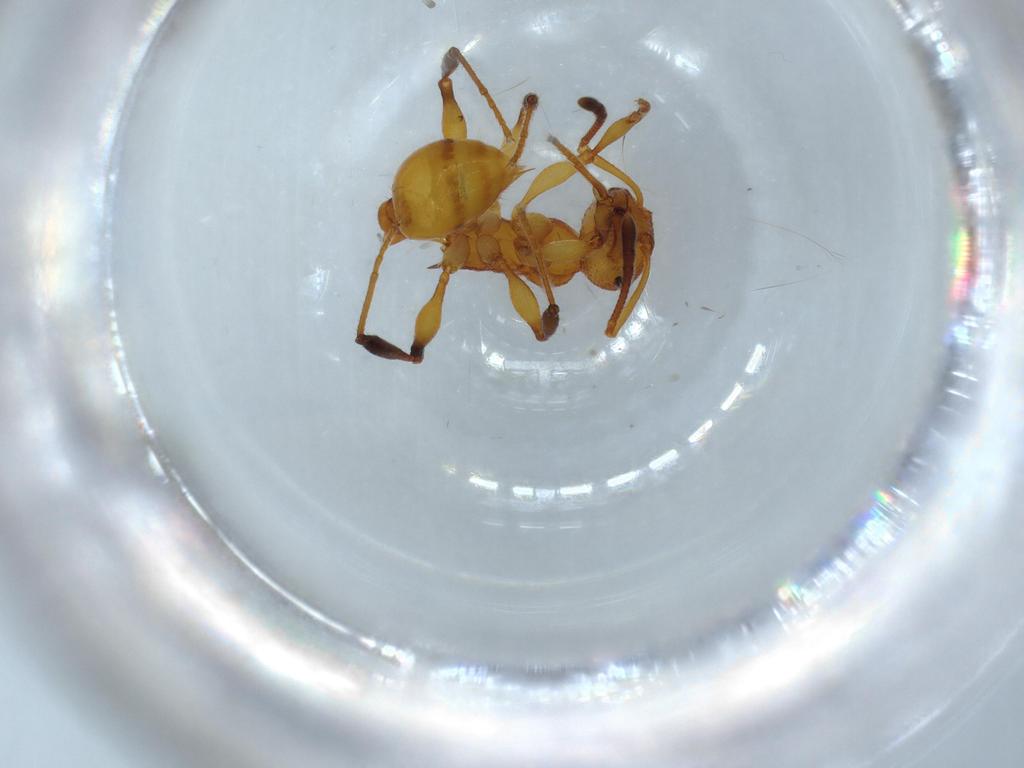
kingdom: Animalia
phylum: Arthropoda
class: Insecta
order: Hymenoptera
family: Formicidae
